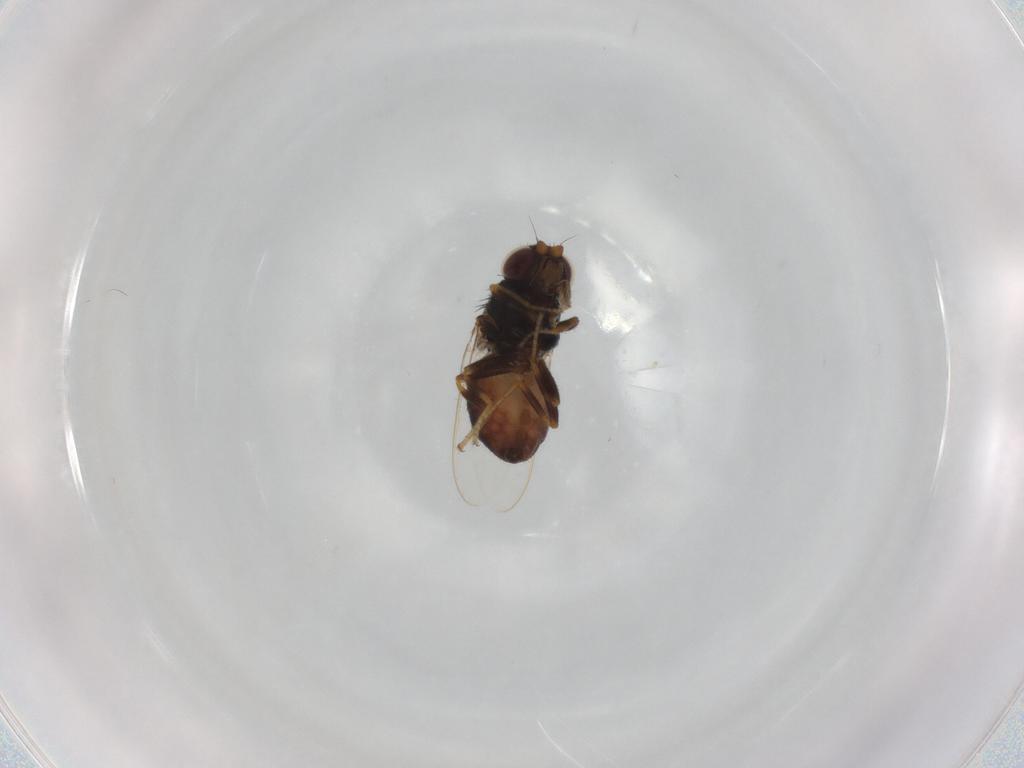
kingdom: Animalia
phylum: Arthropoda
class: Insecta
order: Diptera
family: Chloropidae
